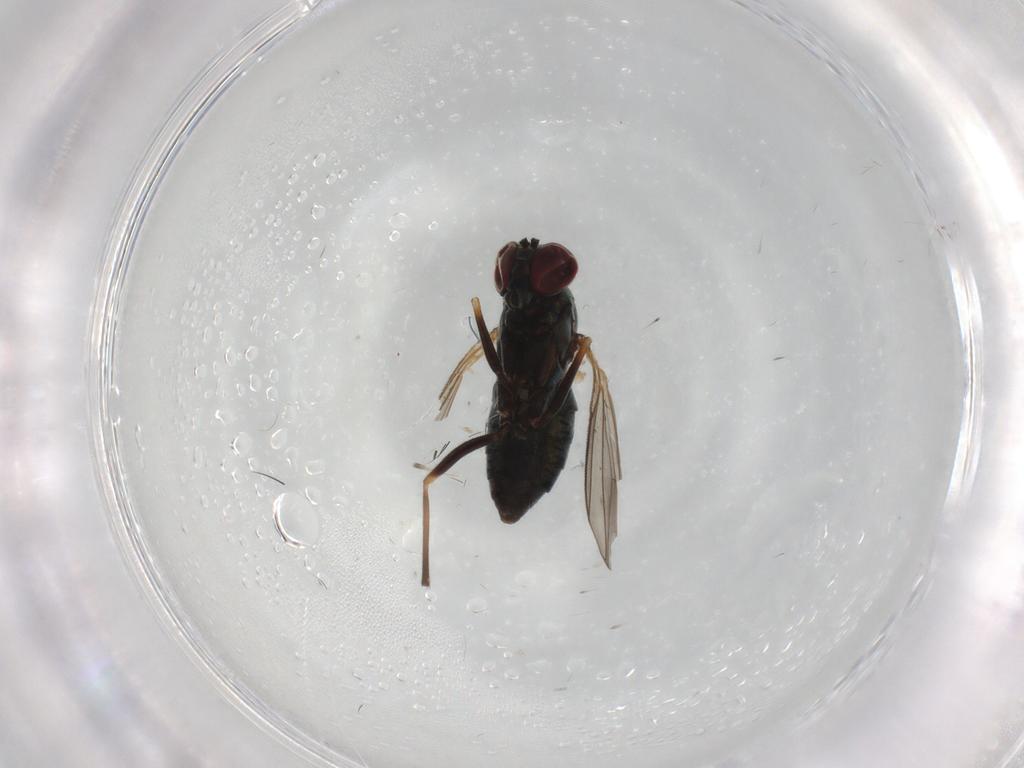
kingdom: Animalia
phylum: Arthropoda
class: Insecta
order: Diptera
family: Dolichopodidae
